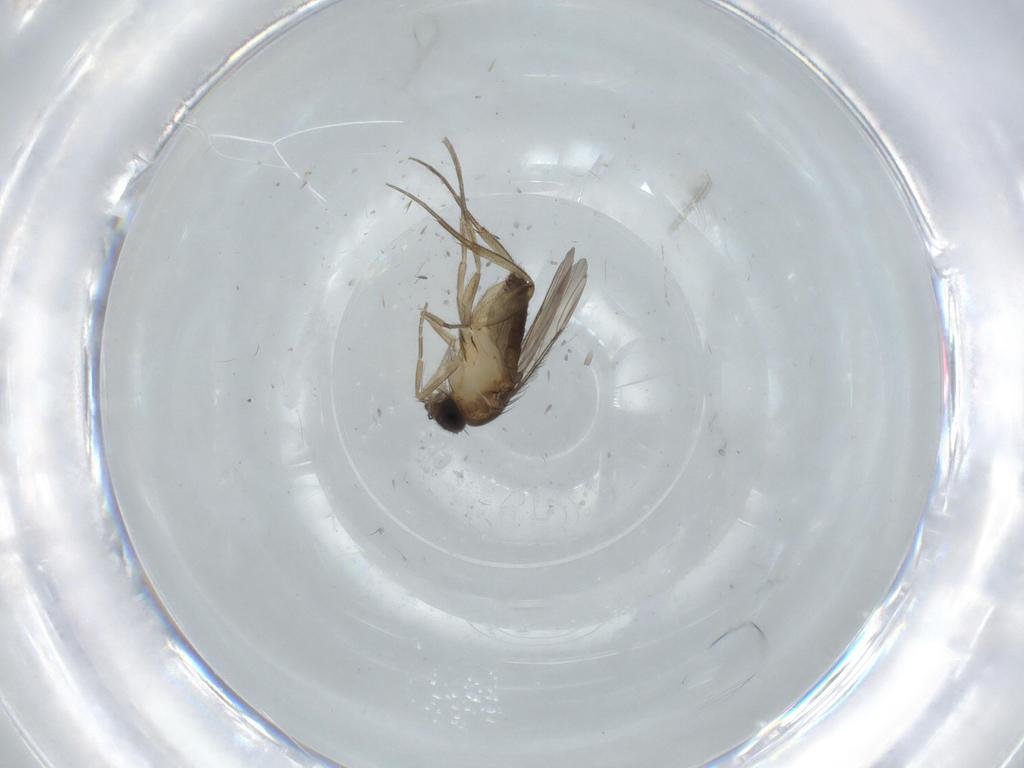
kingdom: Animalia
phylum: Arthropoda
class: Insecta
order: Diptera
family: Phoridae
